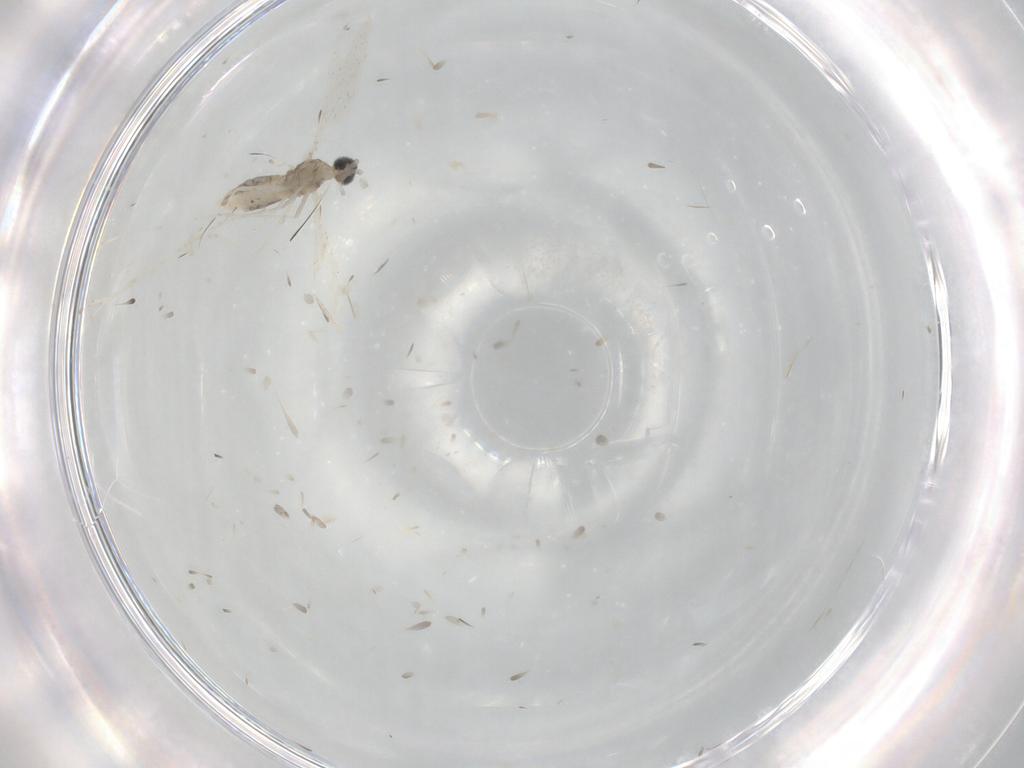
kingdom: Animalia
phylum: Arthropoda
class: Insecta
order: Diptera
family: Cecidomyiidae
